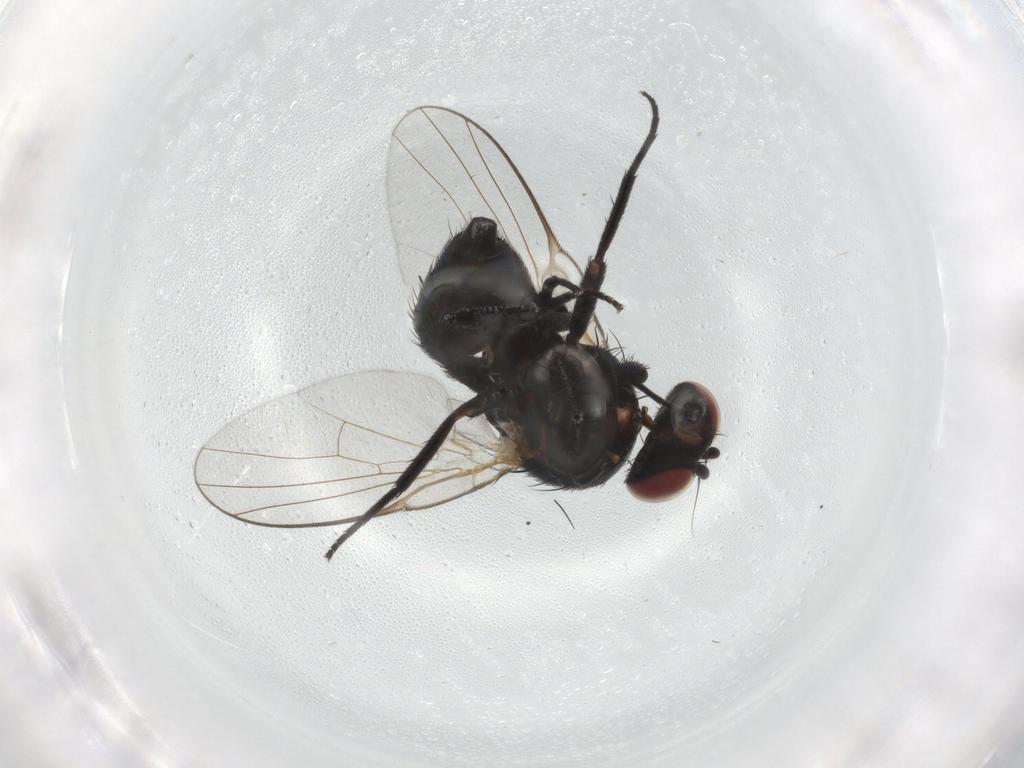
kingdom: Animalia
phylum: Arthropoda
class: Insecta
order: Diptera
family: Agromyzidae
